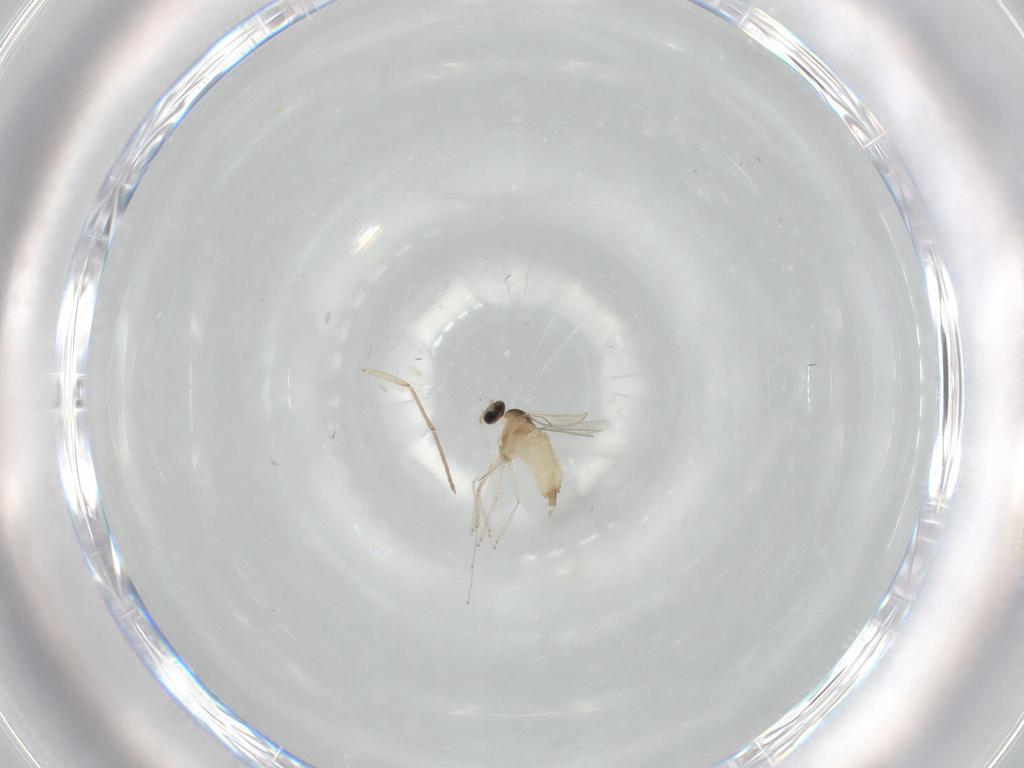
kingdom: Animalia
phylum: Arthropoda
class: Insecta
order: Diptera
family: Cecidomyiidae
